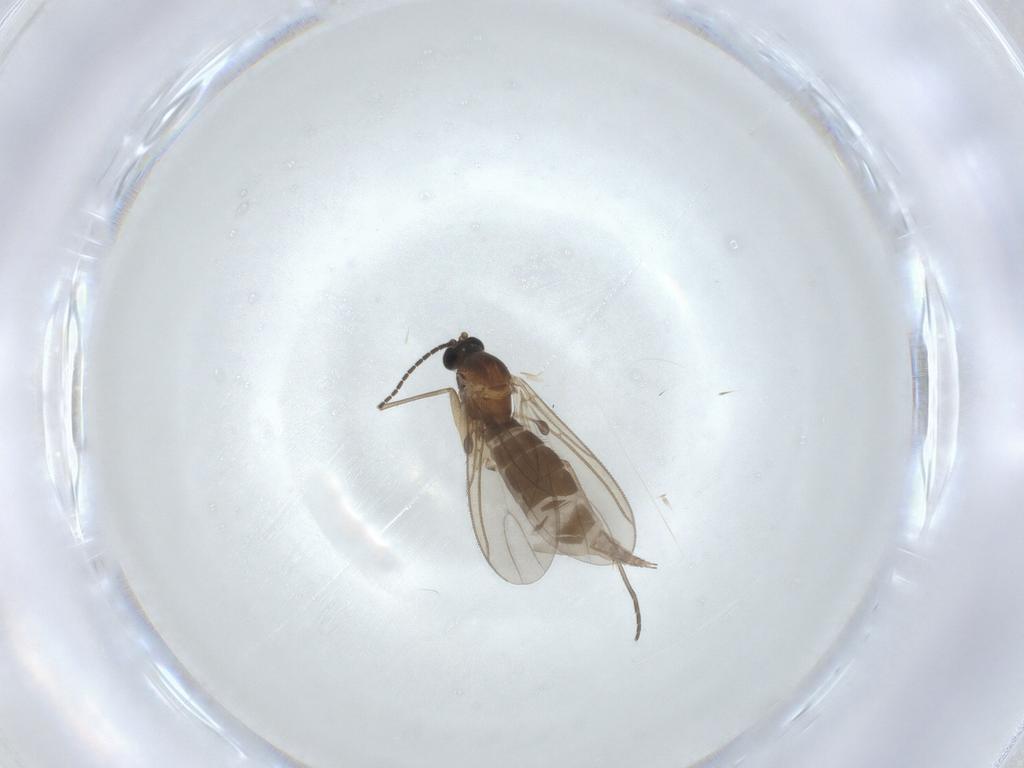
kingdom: Animalia
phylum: Arthropoda
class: Insecta
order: Diptera
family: Sciaridae
